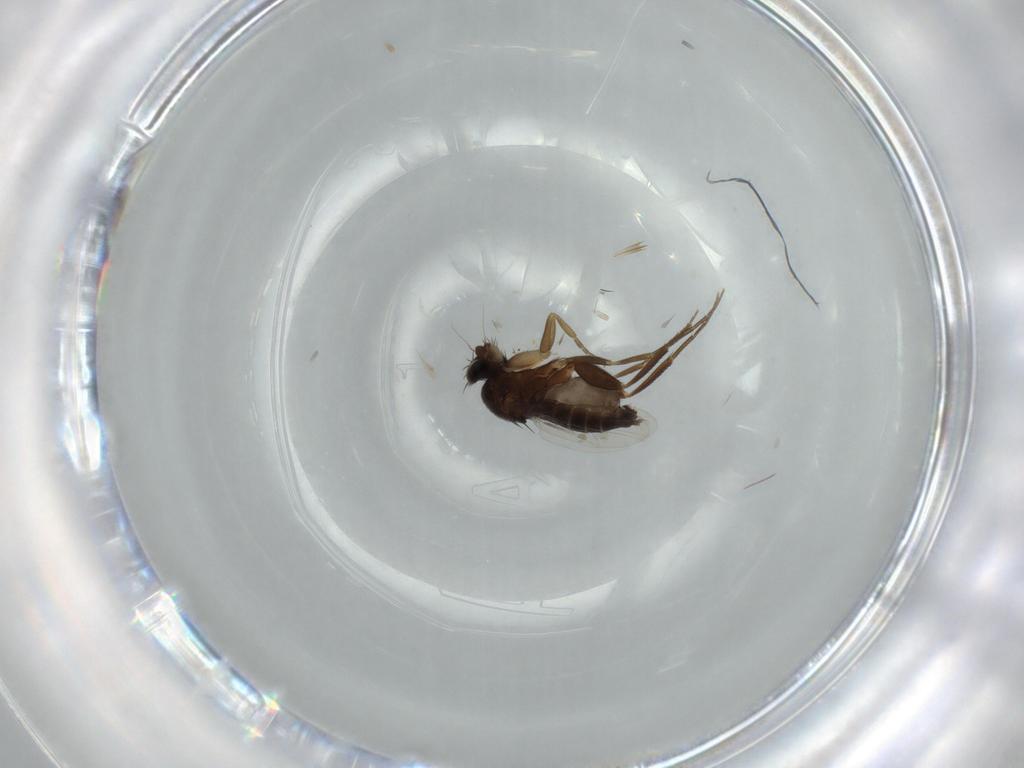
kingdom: Animalia
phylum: Arthropoda
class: Insecta
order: Diptera
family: Phoridae
